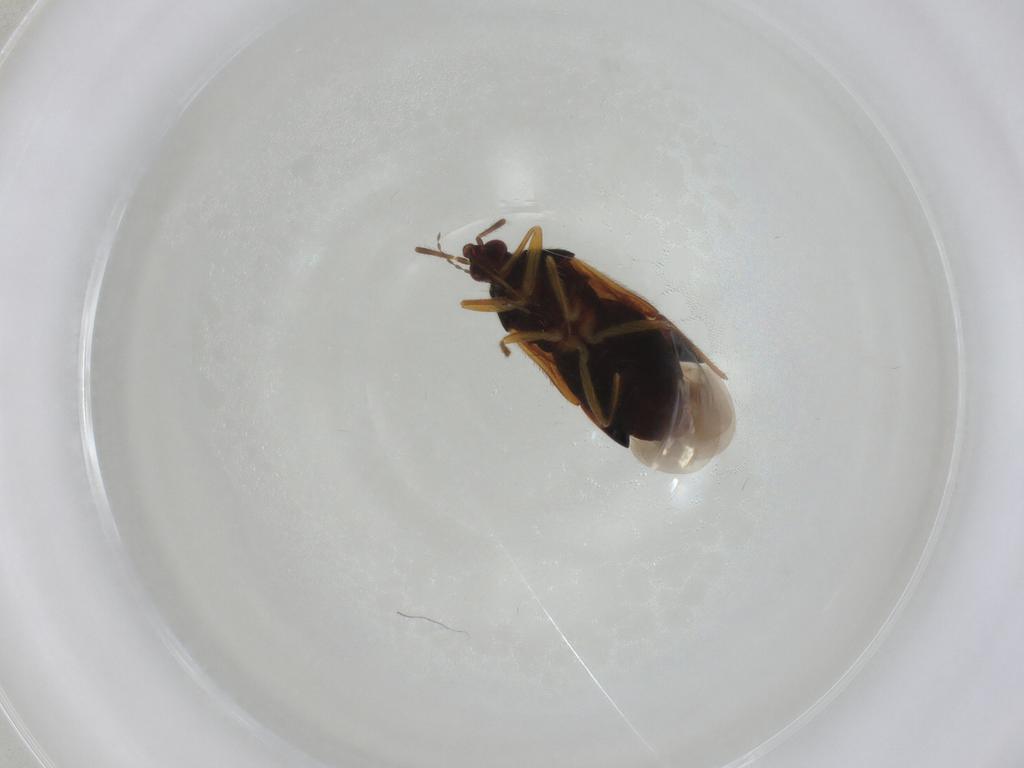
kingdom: Animalia
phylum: Arthropoda
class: Insecta
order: Hemiptera
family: Anthocoridae
